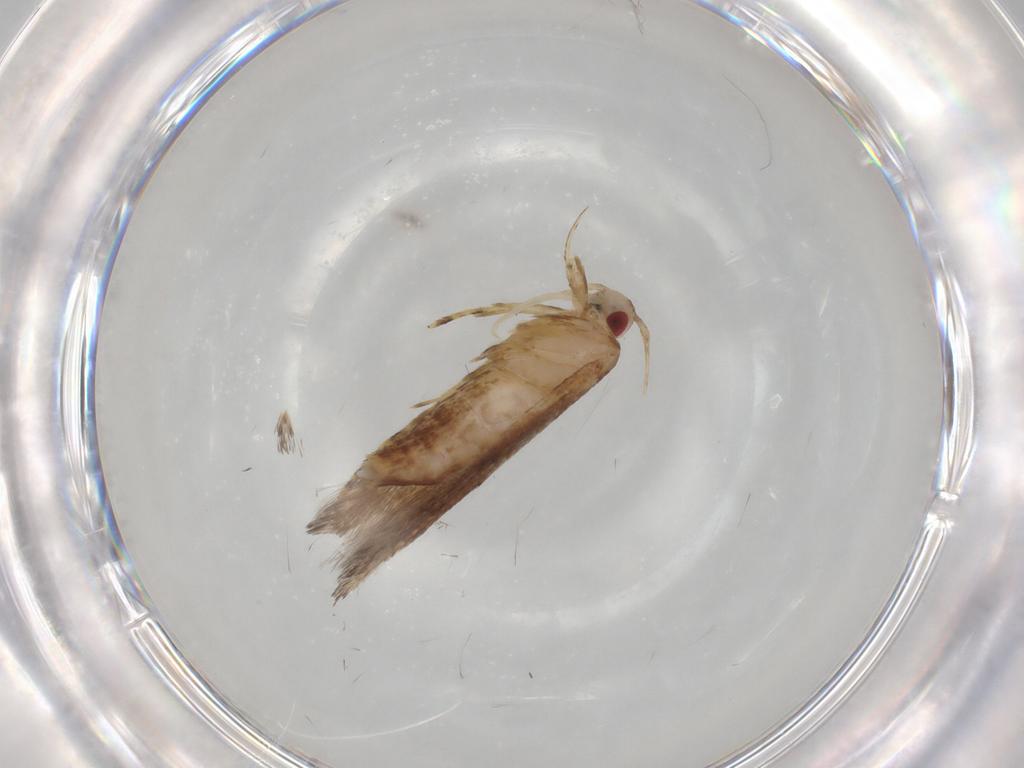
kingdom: Animalia
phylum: Arthropoda
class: Insecta
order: Lepidoptera
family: Cosmopterigidae
